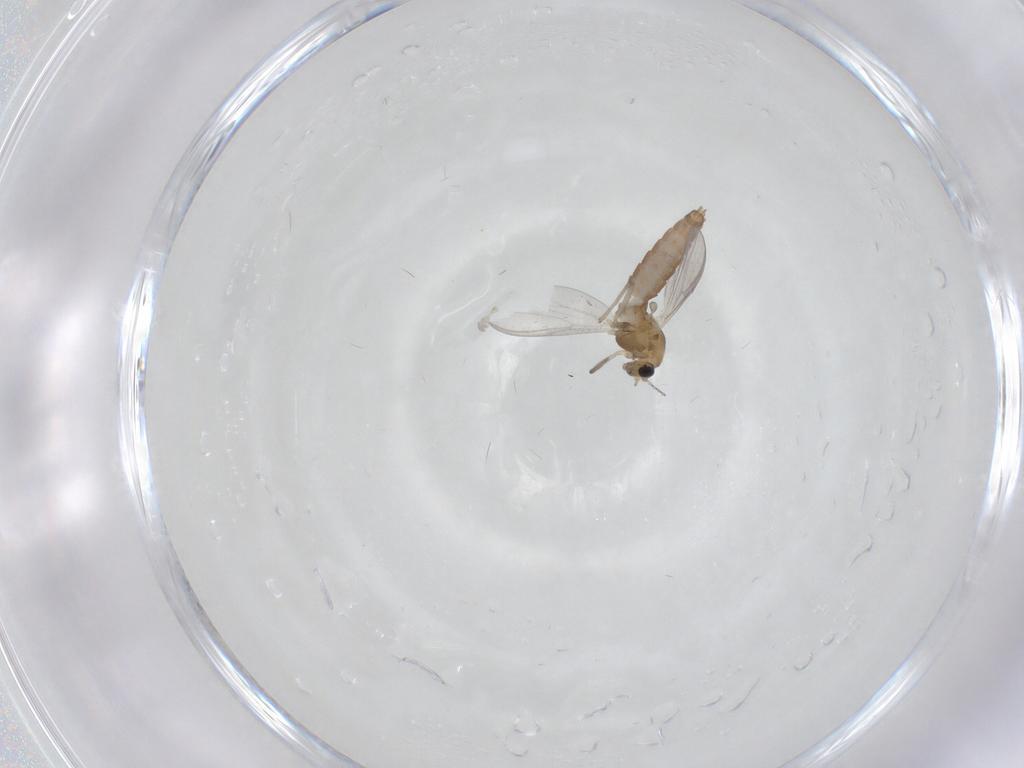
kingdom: Animalia
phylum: Arthropoda
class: Insecta
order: Diptera
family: Chironomidae
